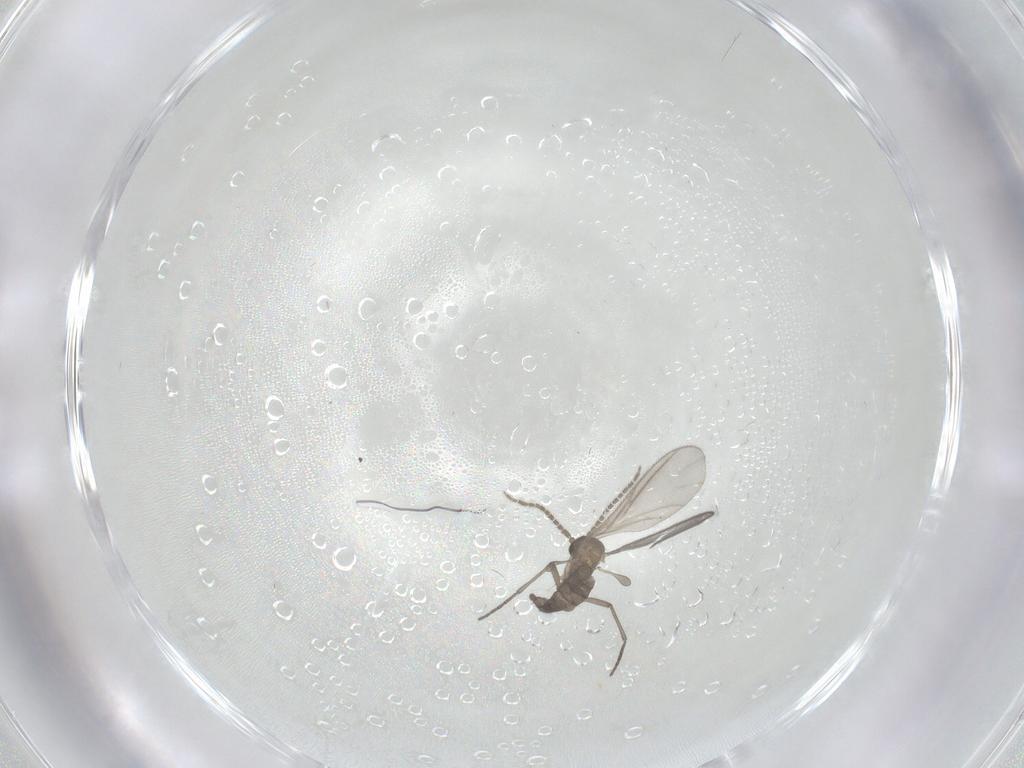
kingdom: Animalia
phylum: Arthropoda
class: Insecta
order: Diptera
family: Sciaridae
